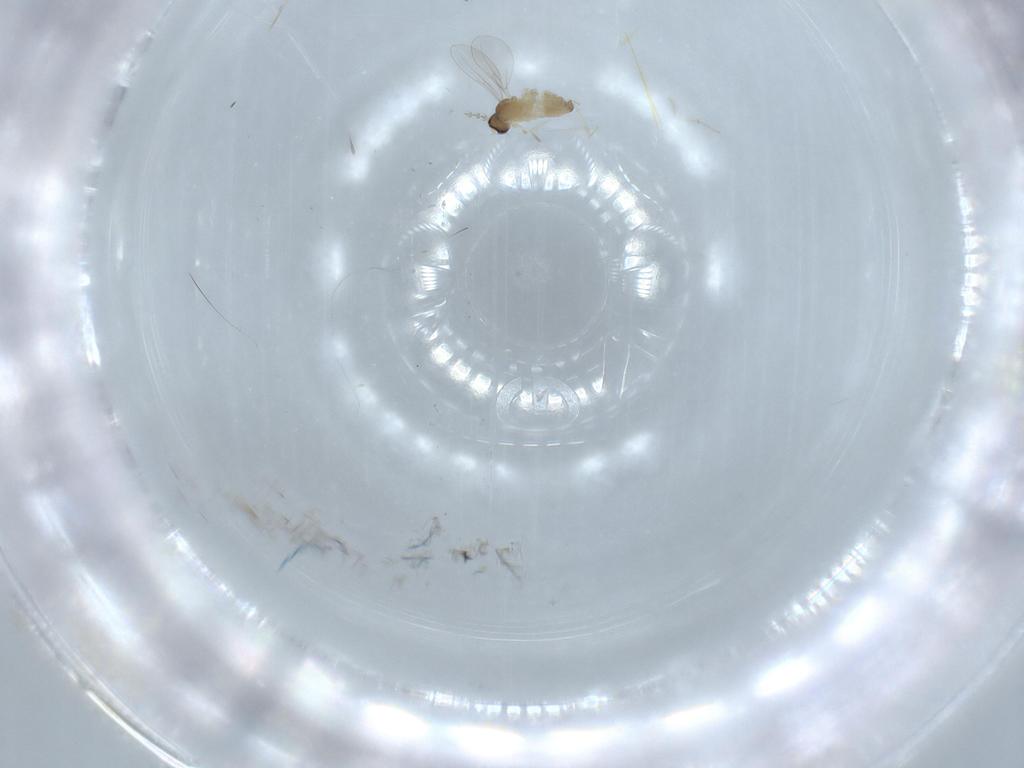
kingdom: Animalia
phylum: Arthropoda
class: Insecta
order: Diptera
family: Cecidomyiidae
